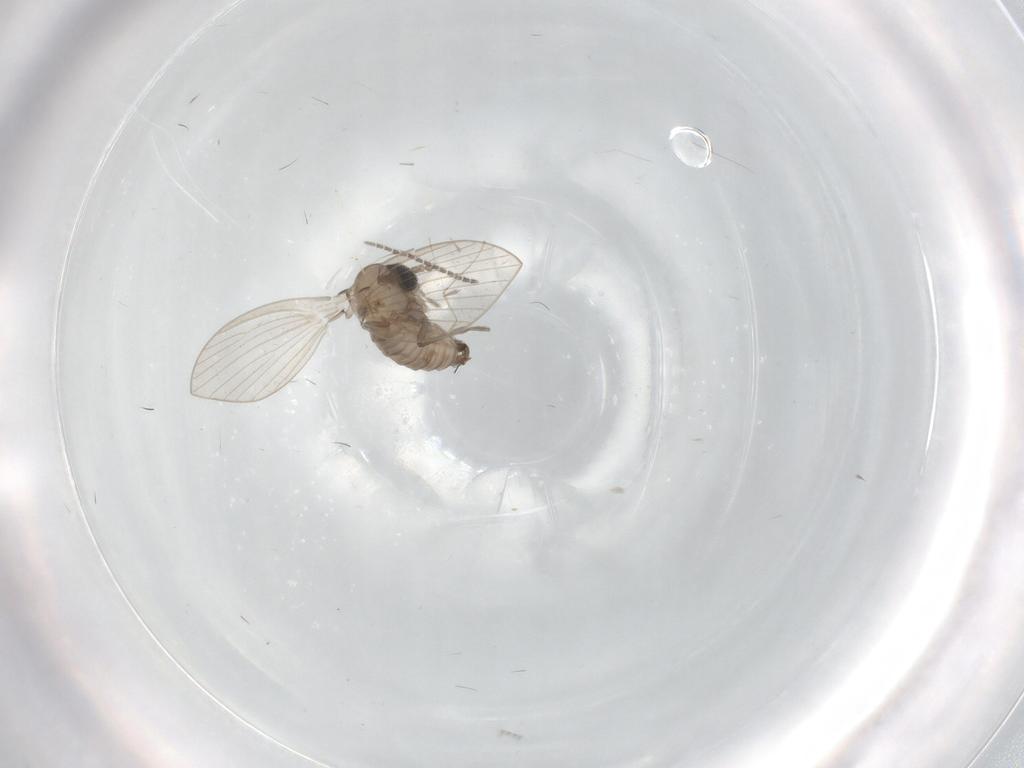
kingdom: Animalia
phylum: Arthropoda
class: Insecta
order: Diptera
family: Psychodidae
